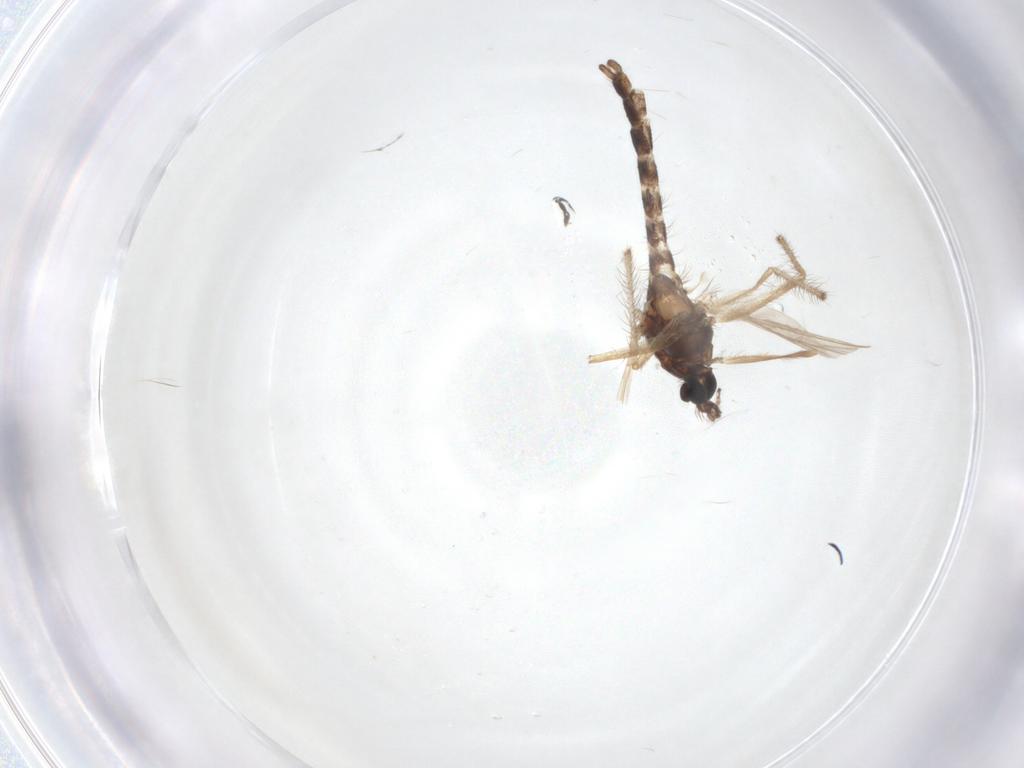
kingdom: Animalia
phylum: Arthropoda
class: Insecta
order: Diptera
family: Chironomidae
